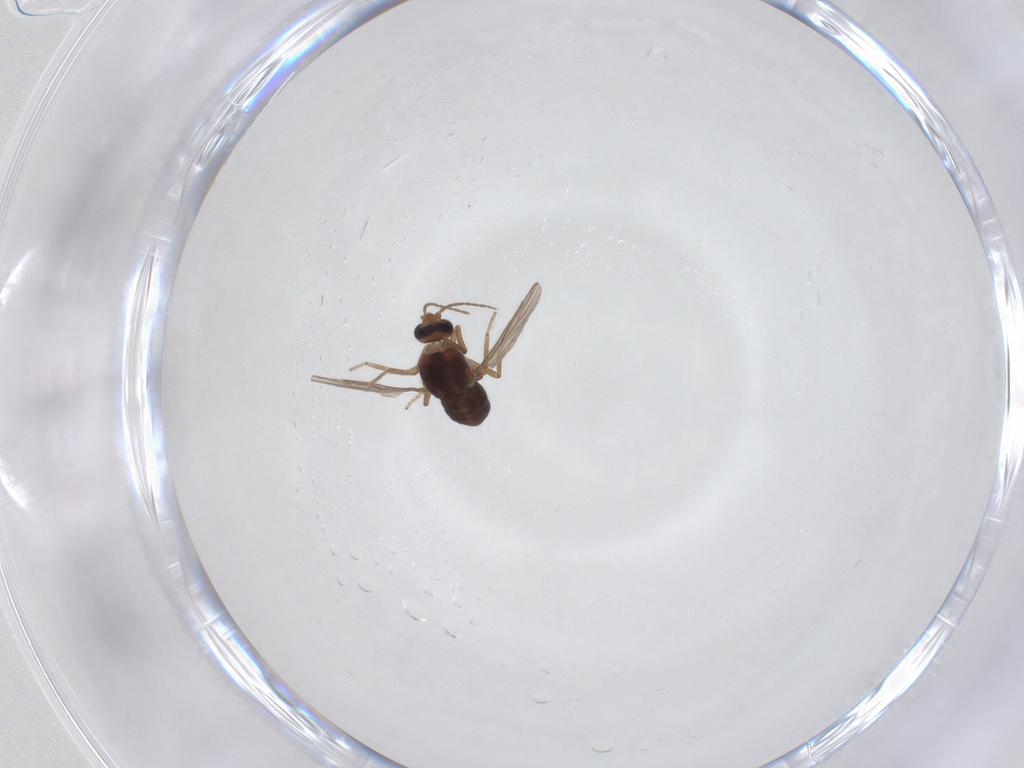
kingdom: Animalia
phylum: Arthropoda
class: Insecta
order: Diptera
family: Ceratopogonidae
